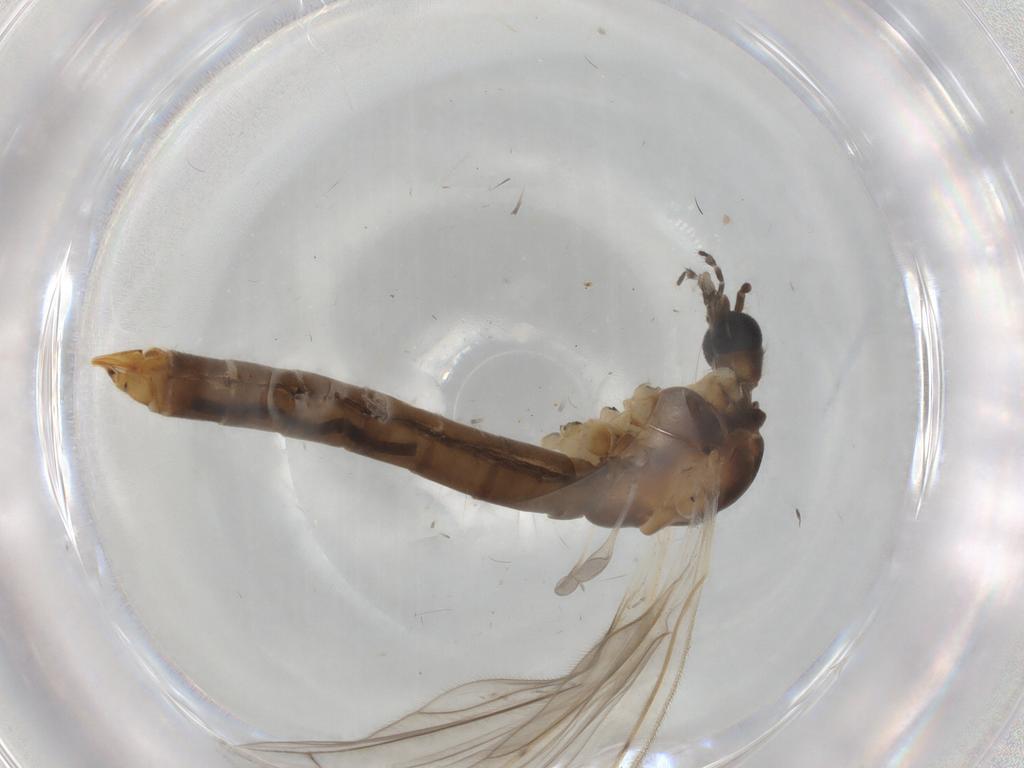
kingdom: Animalia
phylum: Arthropoda
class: Insecta
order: Diptera
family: Limoniidae
